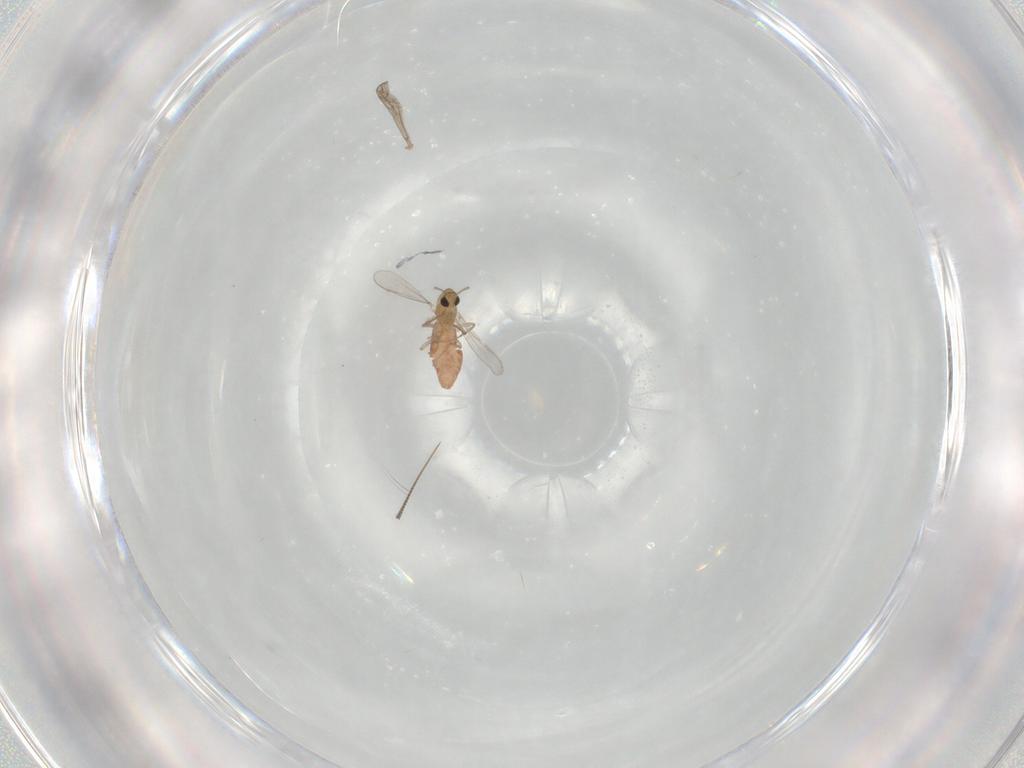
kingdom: Animalia
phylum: Arthropoda
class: Insecta
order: Diptera
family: Chironomidae
